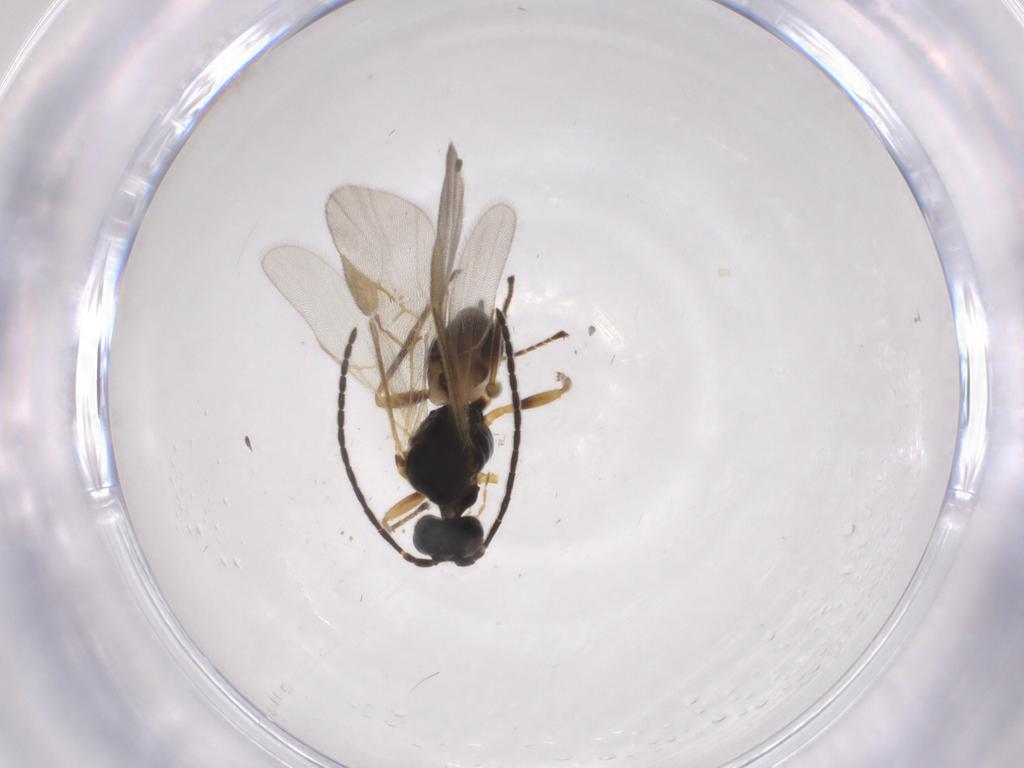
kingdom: Animalia
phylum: Arthropoda
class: Insecta
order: Hymenoptera
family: Braconidae
